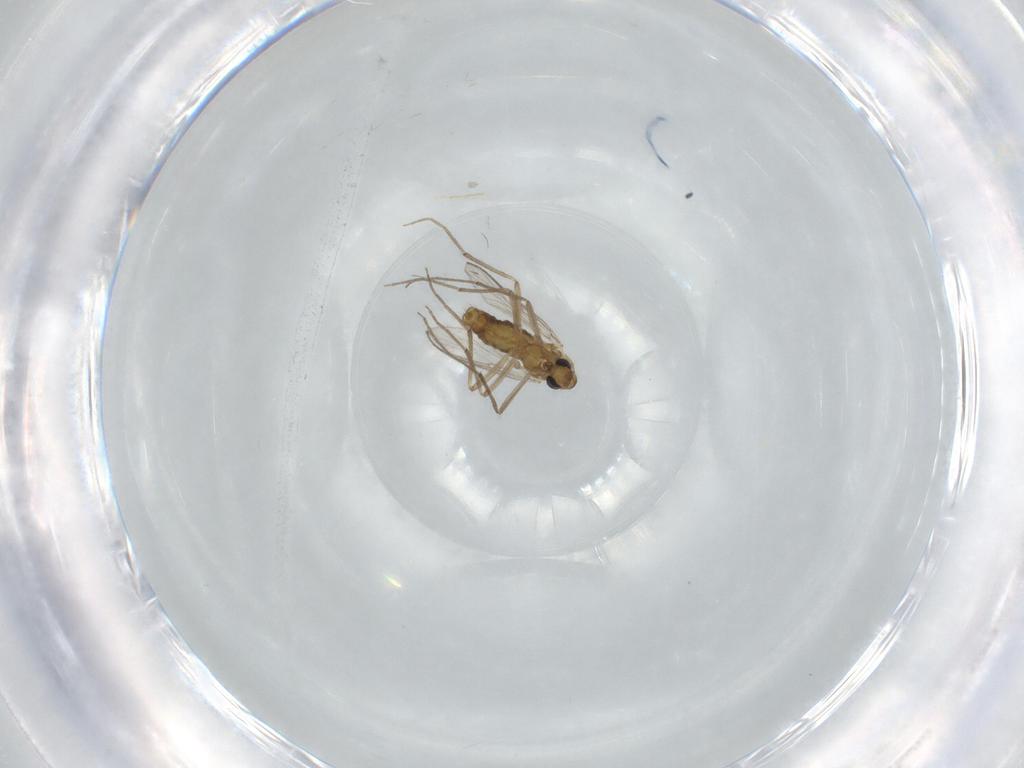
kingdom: Animalia
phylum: Arthropoda
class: Insecta
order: Diptera
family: Chironomidae
